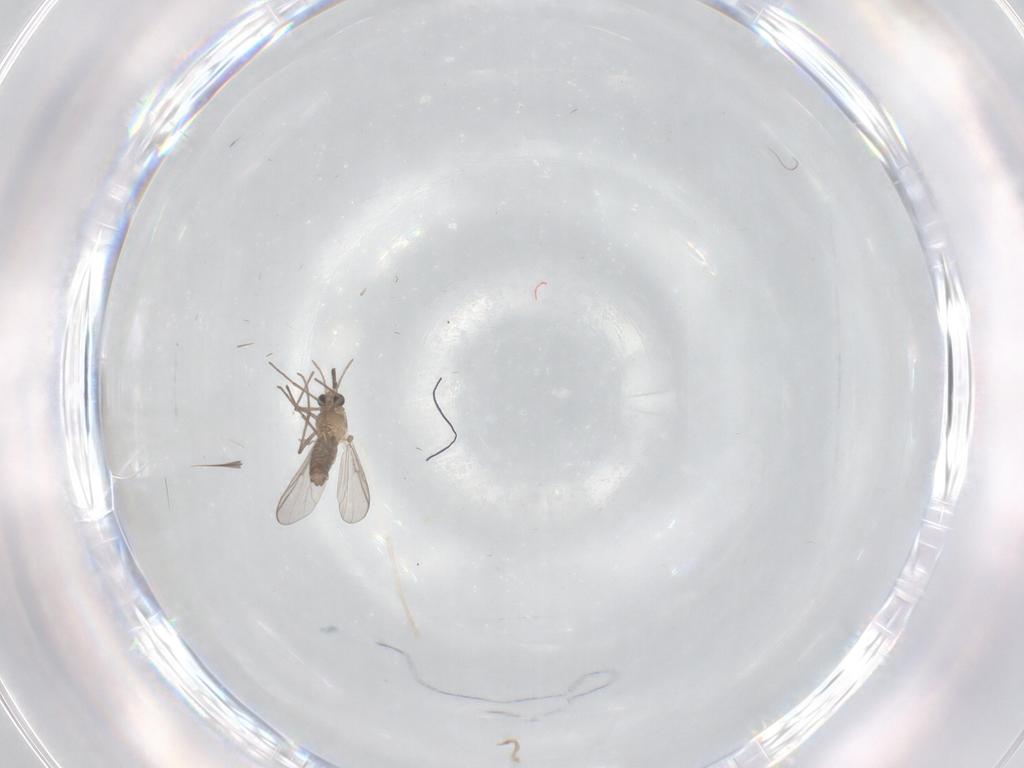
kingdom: Animalia
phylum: Arthropoda
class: Insecta
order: Diptera
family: Chironomidae
